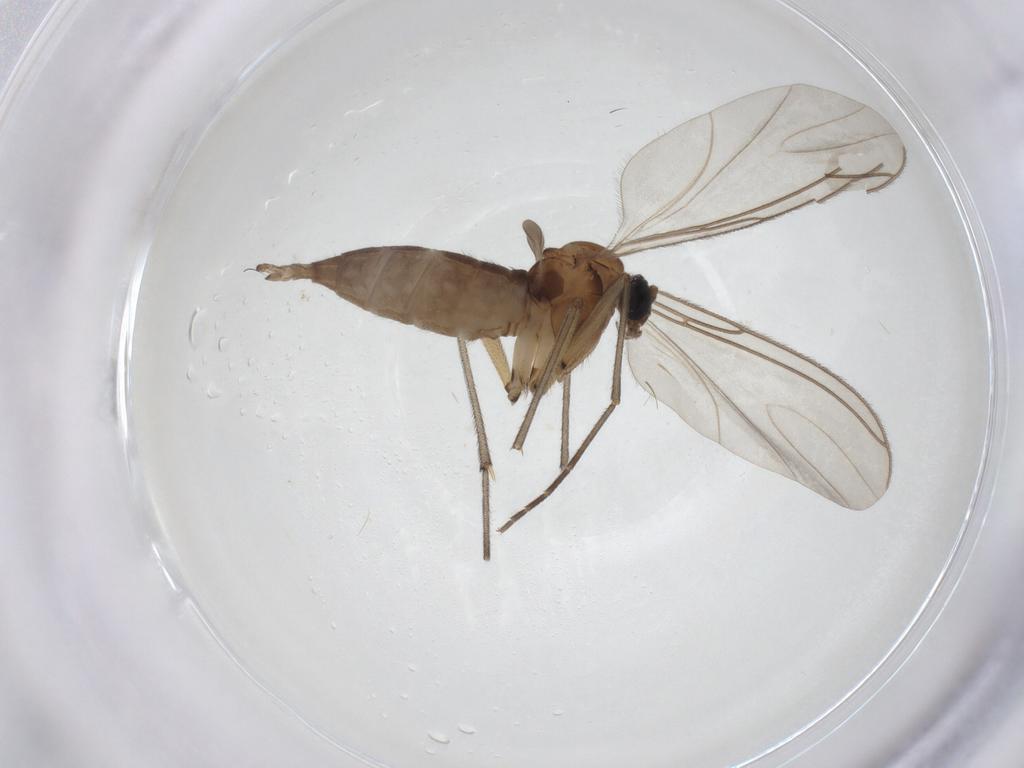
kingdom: Animalia
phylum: Arthropoda
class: Insecta
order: Diptera
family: Sciaridae
